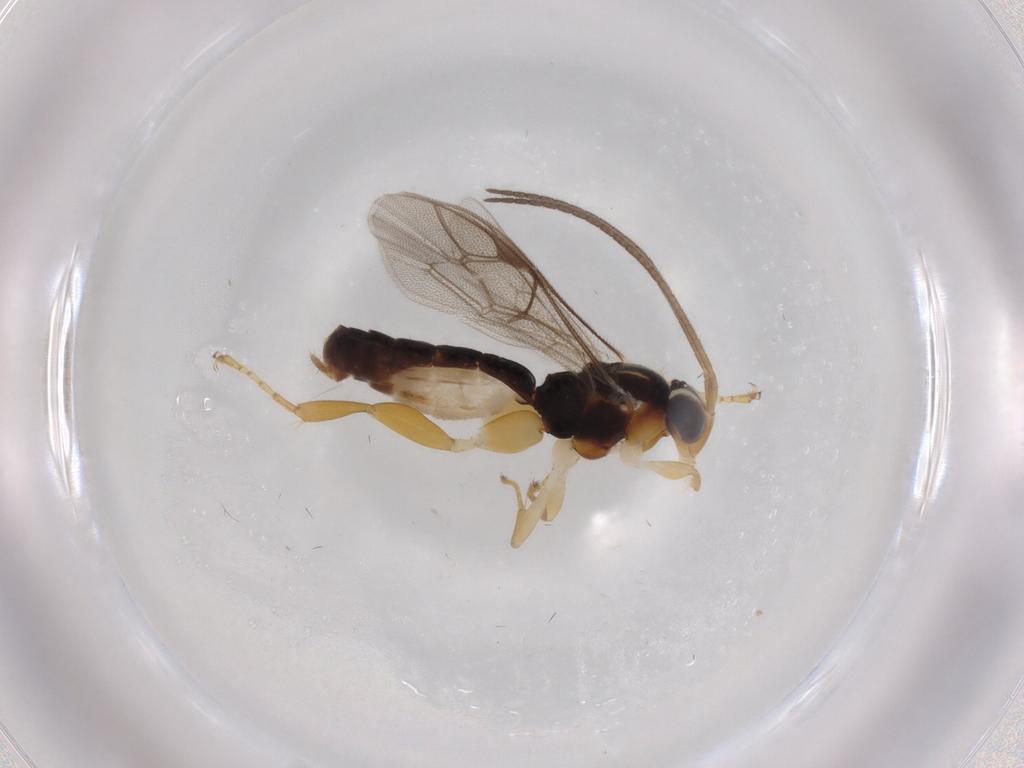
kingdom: Animalia
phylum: Arthropoda
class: Insecta
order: Hymenoptera
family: Ichneumonidae
